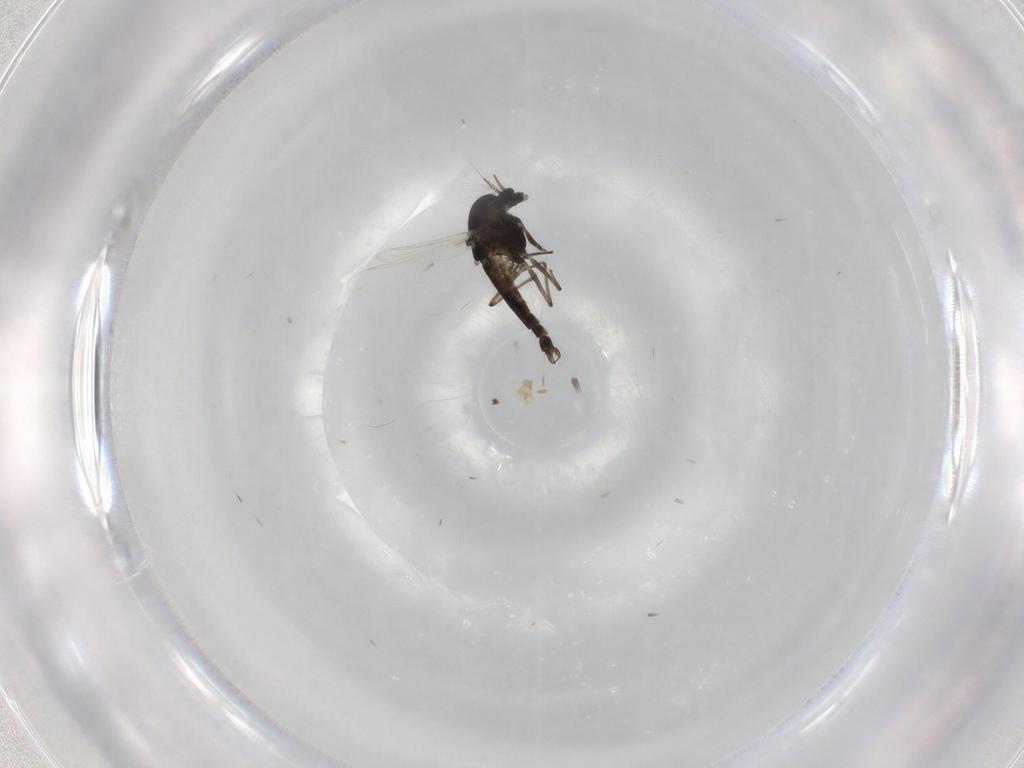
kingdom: Animalia
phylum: Arthropoda
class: Insecta
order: Diptera
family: Chironomidae
